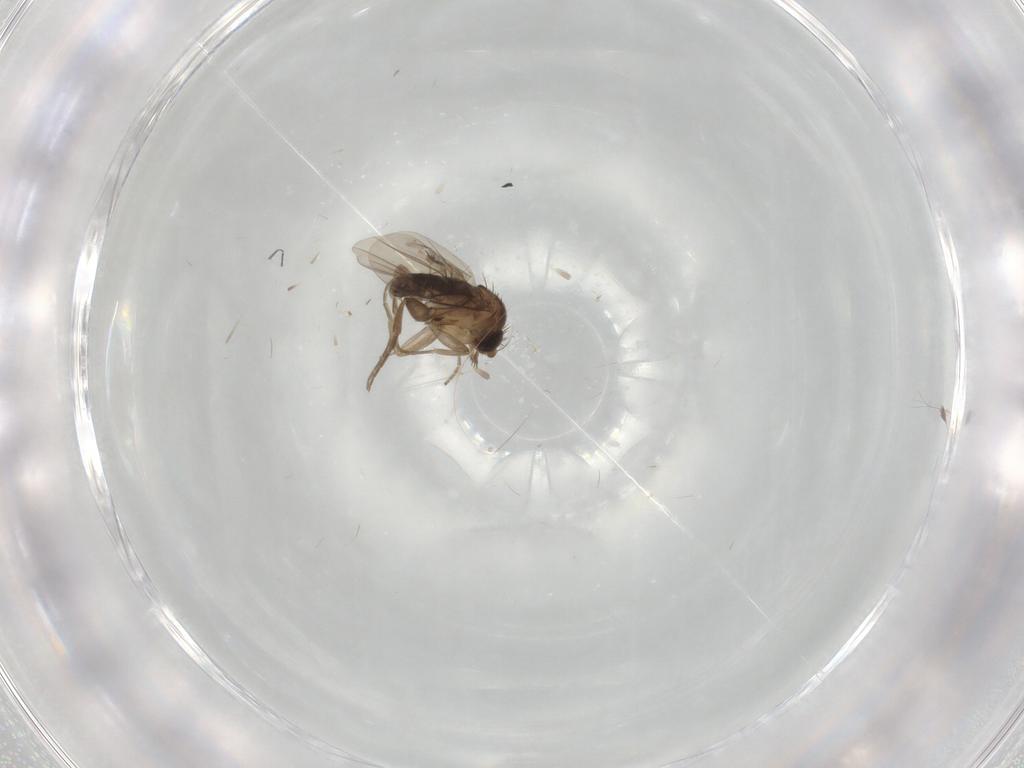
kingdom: Animalia
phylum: Arthropoda
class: Insecta
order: Diptera
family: Phoridae
